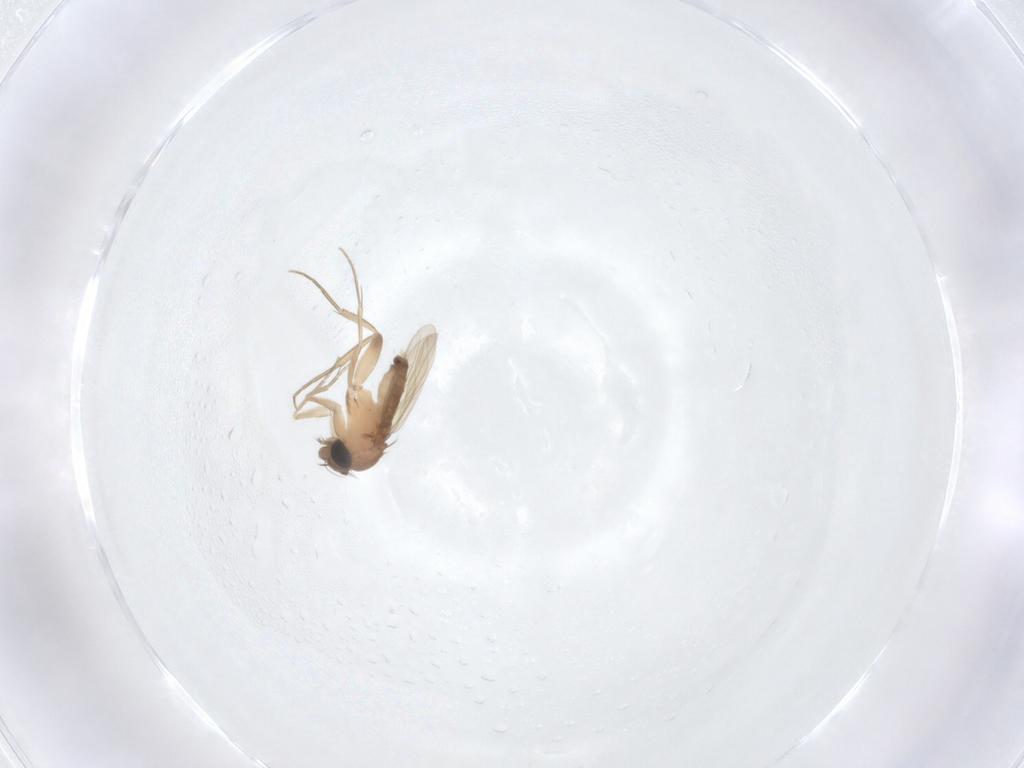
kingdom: Animalia
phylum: Arthropoda
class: Insecta
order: Diptera
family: Phoridae
